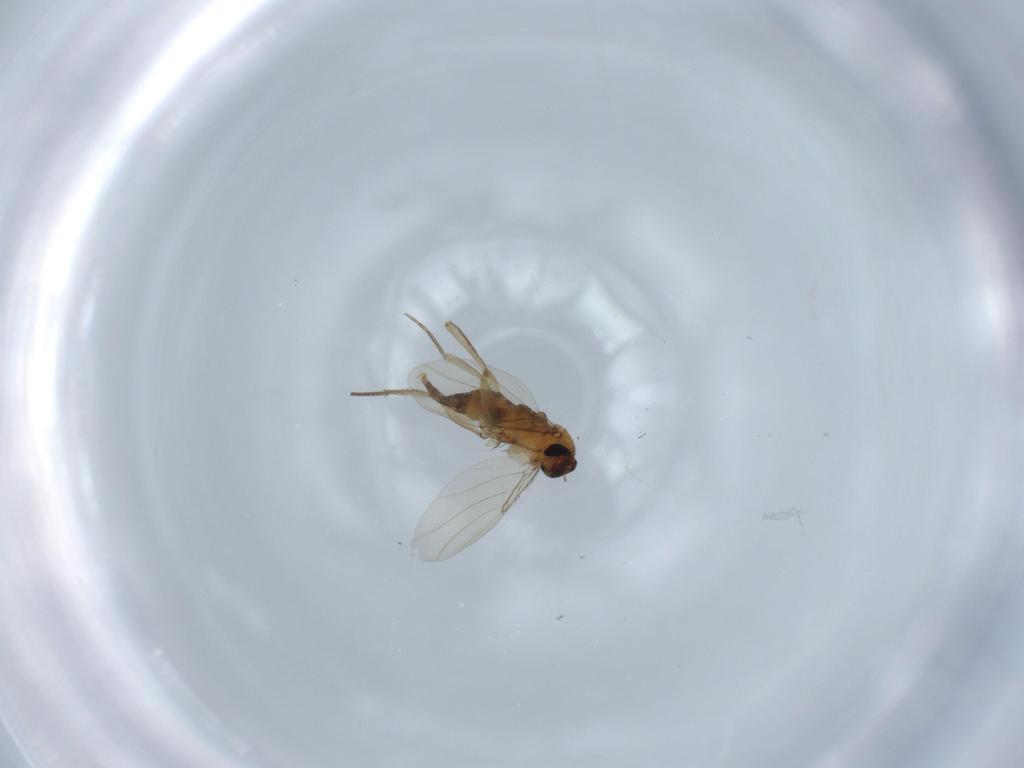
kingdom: Animalia
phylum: Arthropoda
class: Insecta
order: Diptera
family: Phoridae
